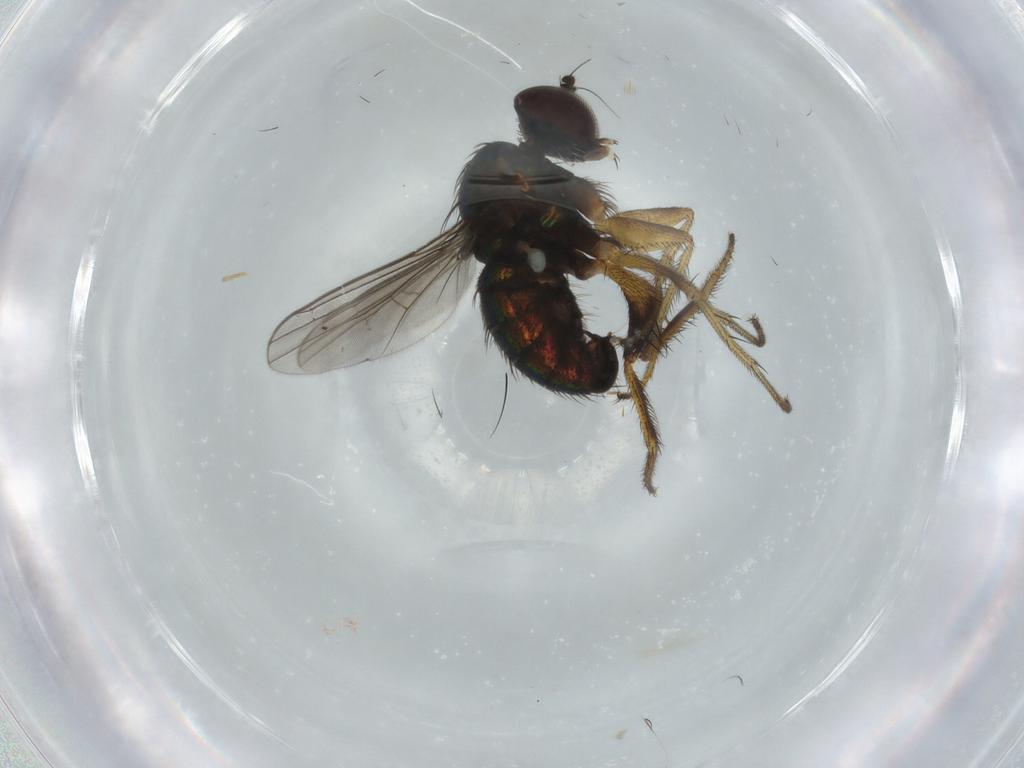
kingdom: Animalia
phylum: Arthropoda
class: Insecta
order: Diptera
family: Dolichopodidae
